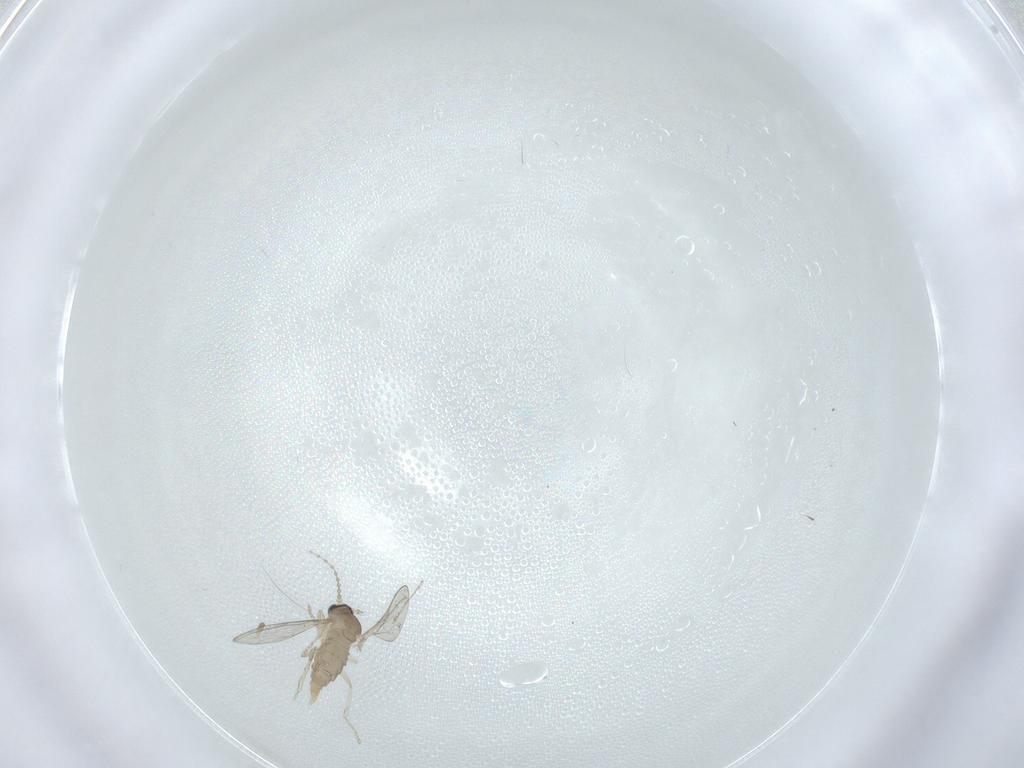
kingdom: Animalia
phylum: Arthropoda
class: Insecta
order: Diptera
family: Cecidomyiidae
